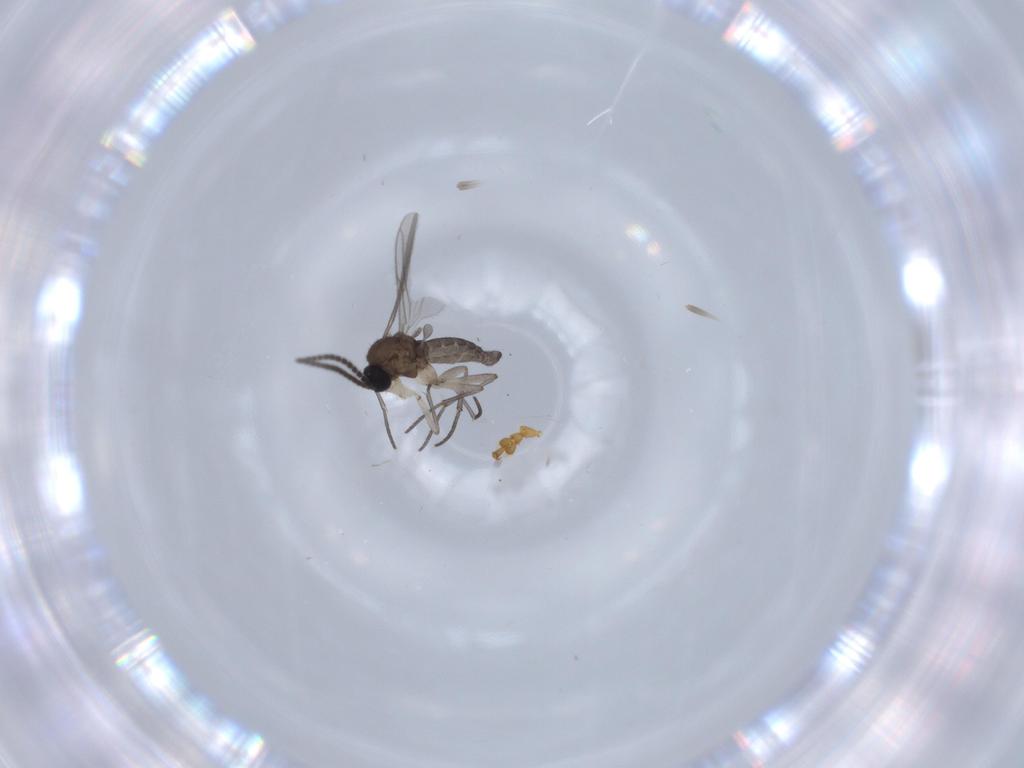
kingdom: Animalia
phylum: Arthropoda
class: Insecta
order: Diptera
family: Sciaridae
